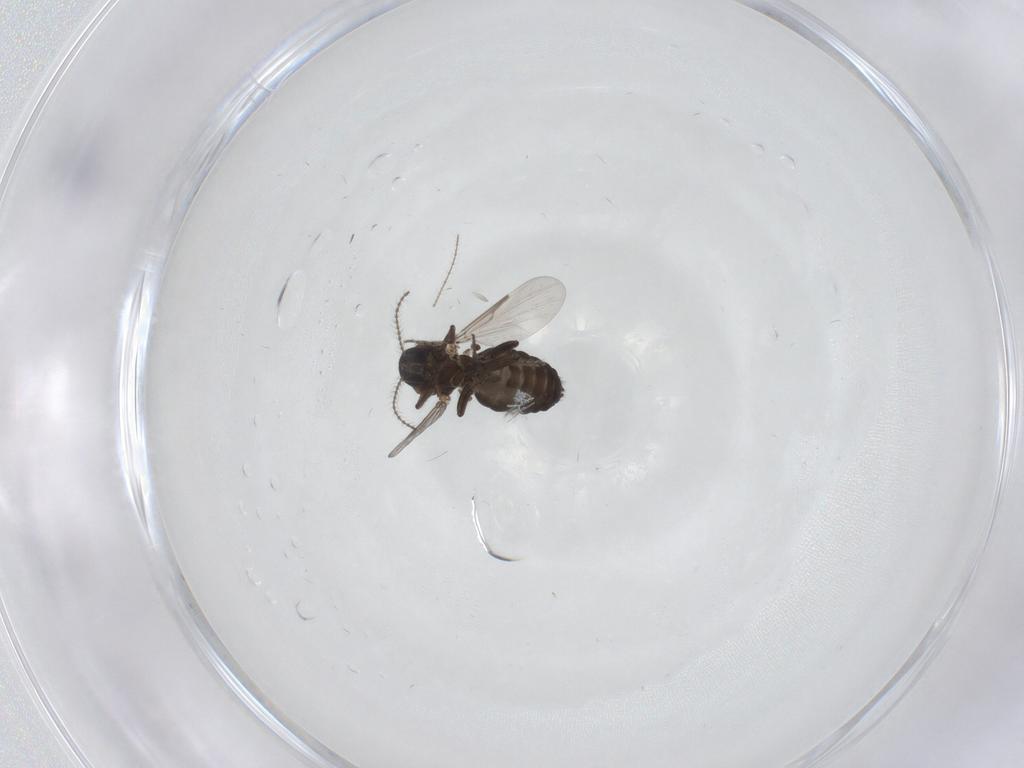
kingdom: Animalia
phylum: Arthropoda
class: Insecta
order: Diptera
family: Ceratopogonidae
